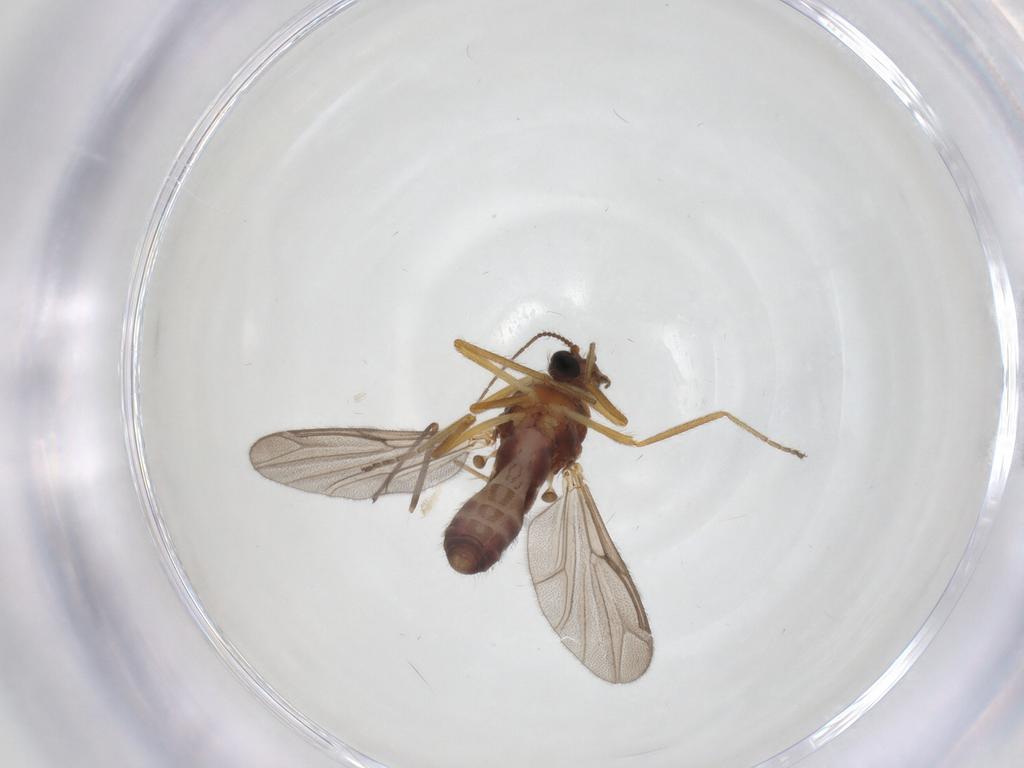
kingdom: Animalia
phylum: Arthropoda
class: Insecta
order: Diptera
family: Ceratopogonidae
